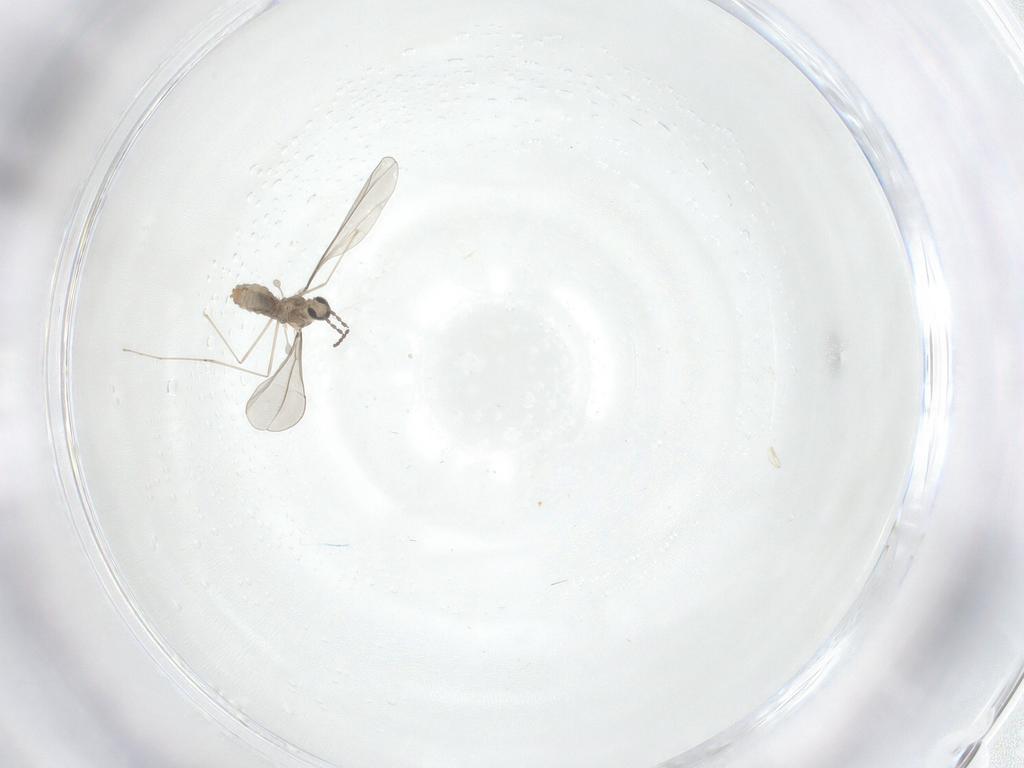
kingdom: Animalia
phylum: Arthropoda
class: Insecta
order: Diptera
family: Cecidomyiidae
